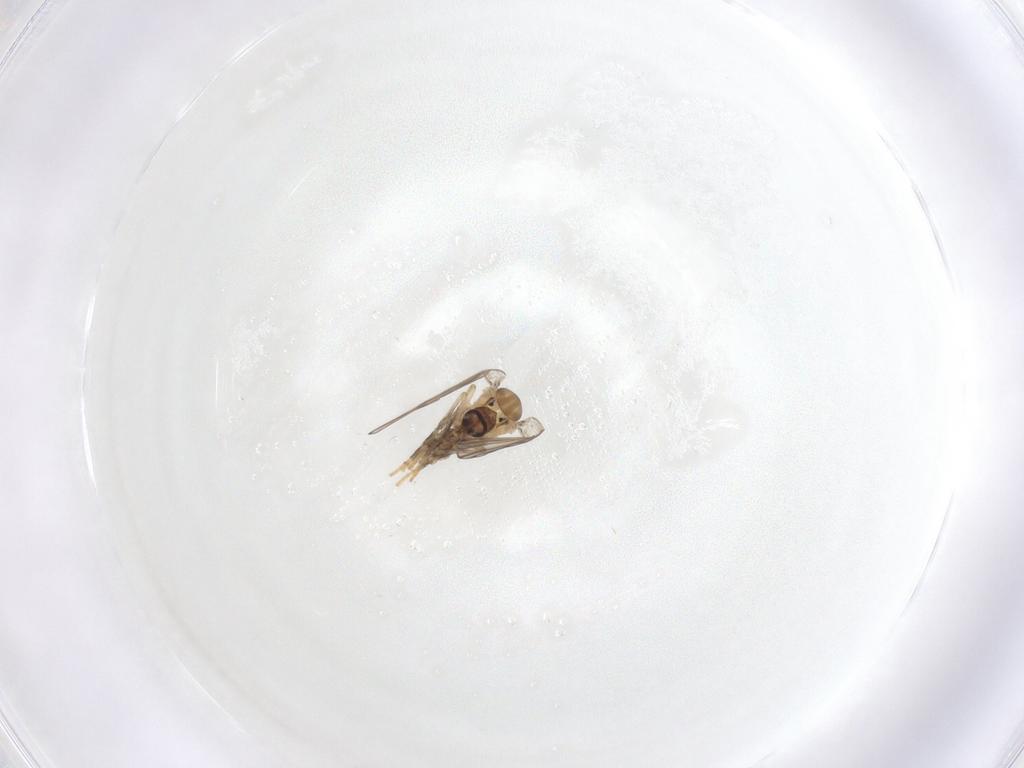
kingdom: Animalia
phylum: Arthropoda
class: Insecta
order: Diptera
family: Psychodidae
